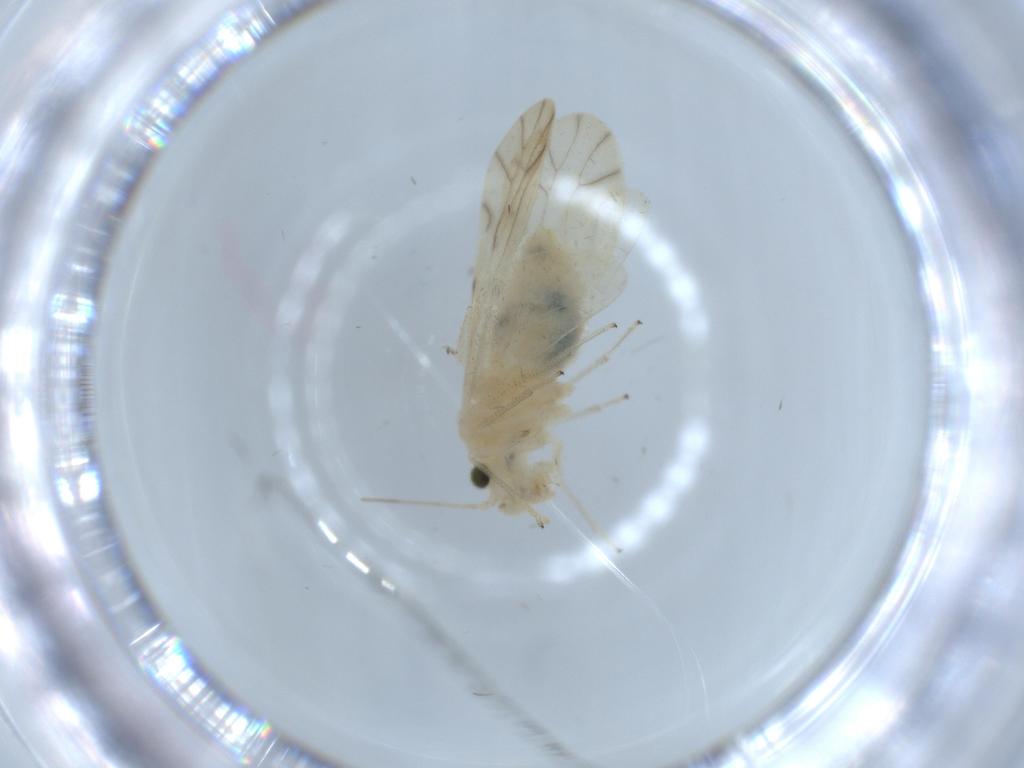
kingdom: Animalia
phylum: Arthropoda
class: Insecta
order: Psocodea
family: Caeciliusidae
